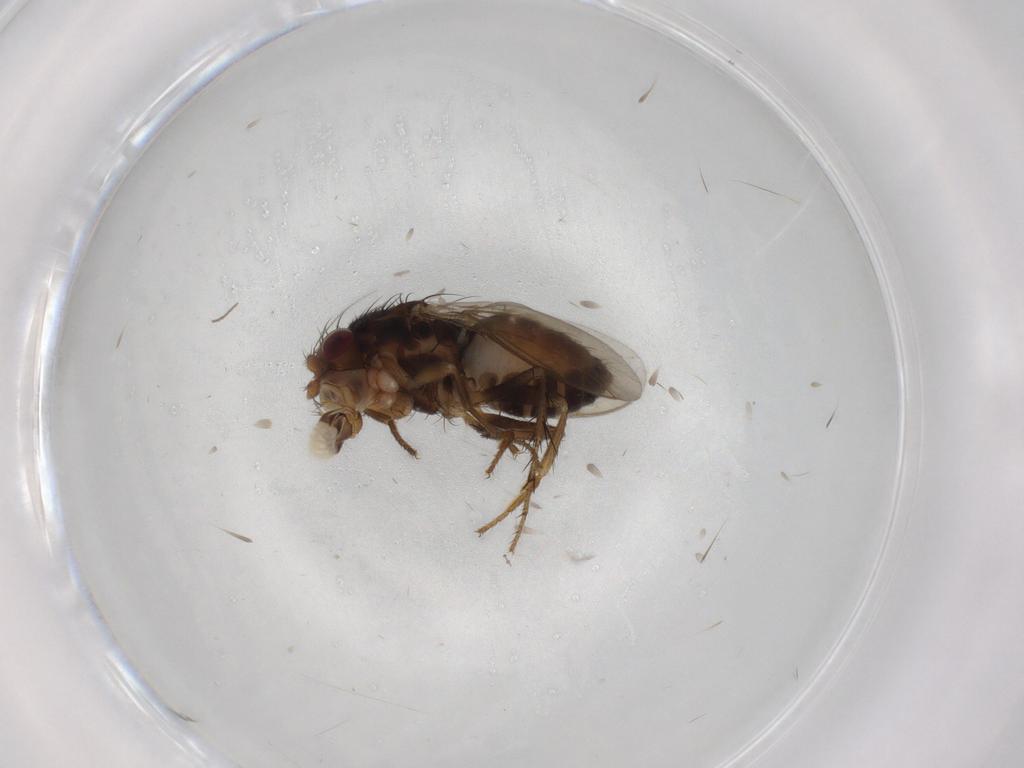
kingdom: Animalia
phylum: Arthropoda
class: Insecta
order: Diptera
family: Sphaeroceridae
